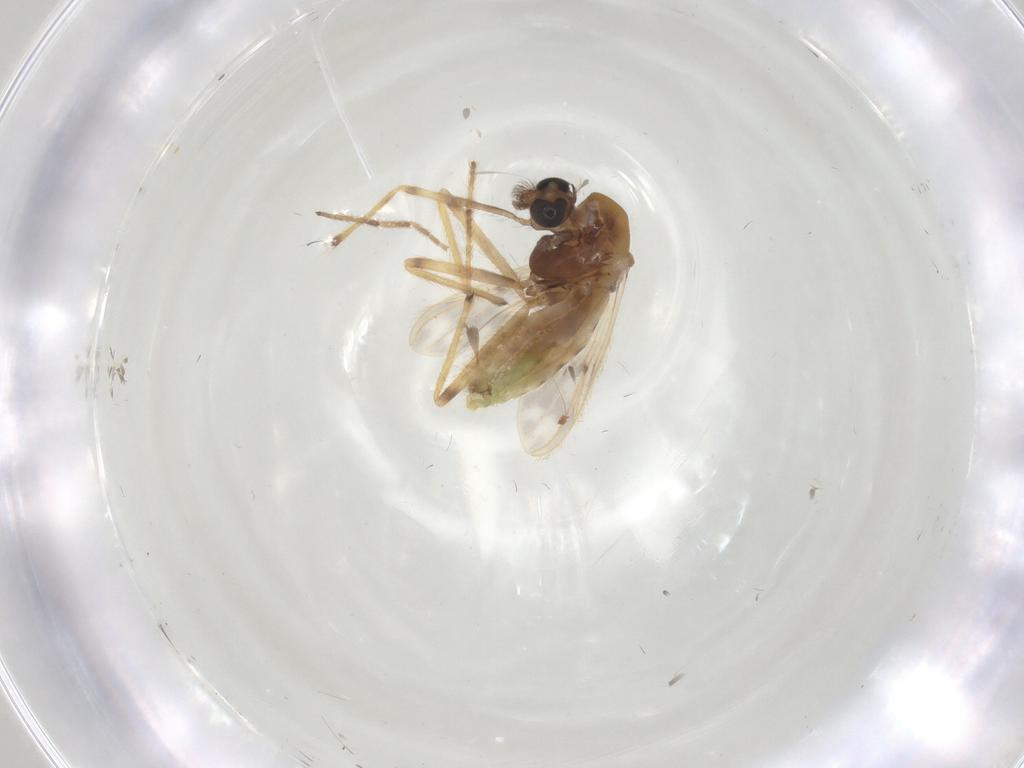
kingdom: Animalia
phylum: Arthropoda
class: Insecta
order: Diptera
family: Chironomidae
